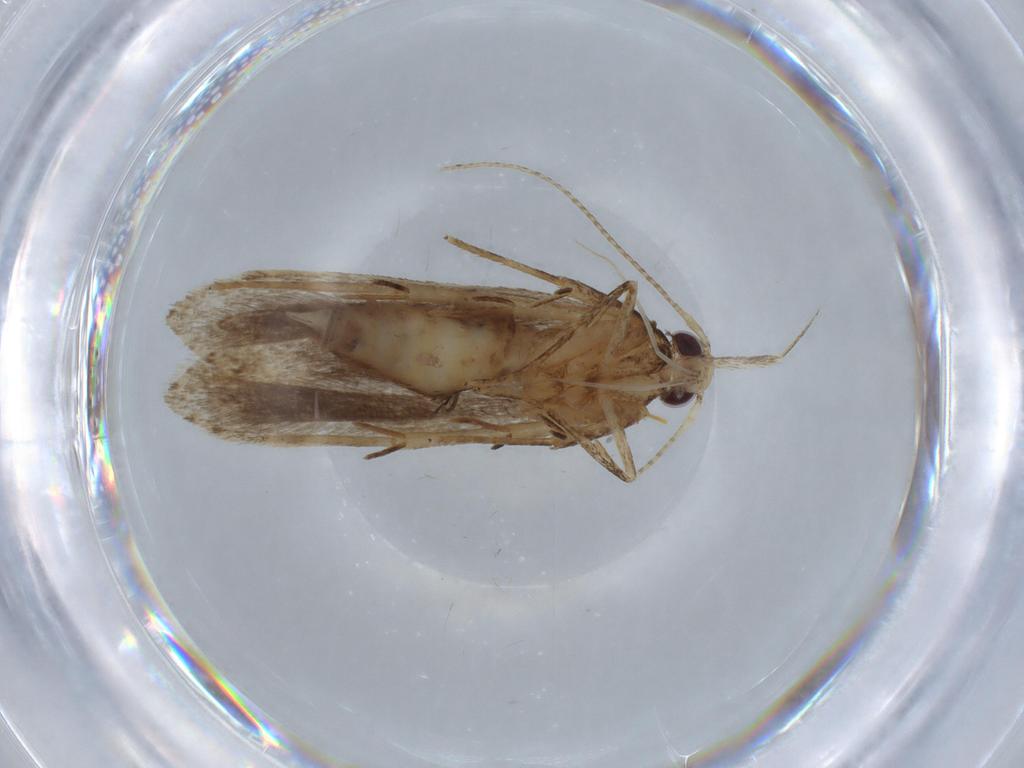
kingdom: Animalia
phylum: Arthropoda
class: Insecta
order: Lepidoptera
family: Gelechiidae
